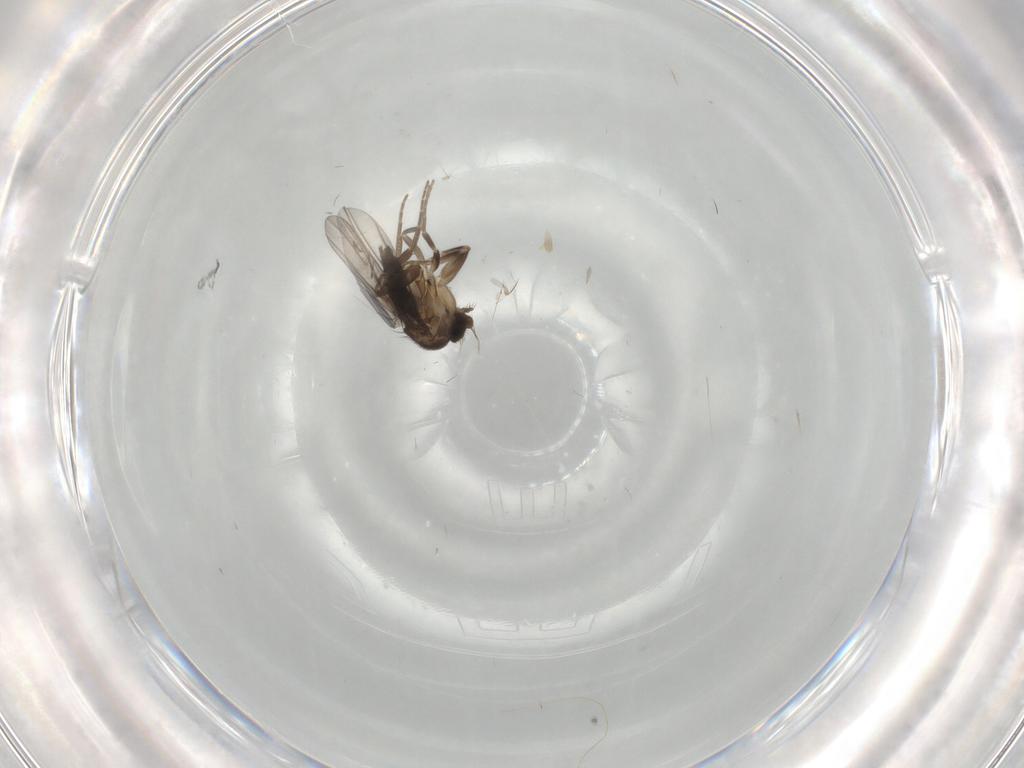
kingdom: Animalia
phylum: Arthropoda
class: Insecta
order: Diptera
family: Phoridae
